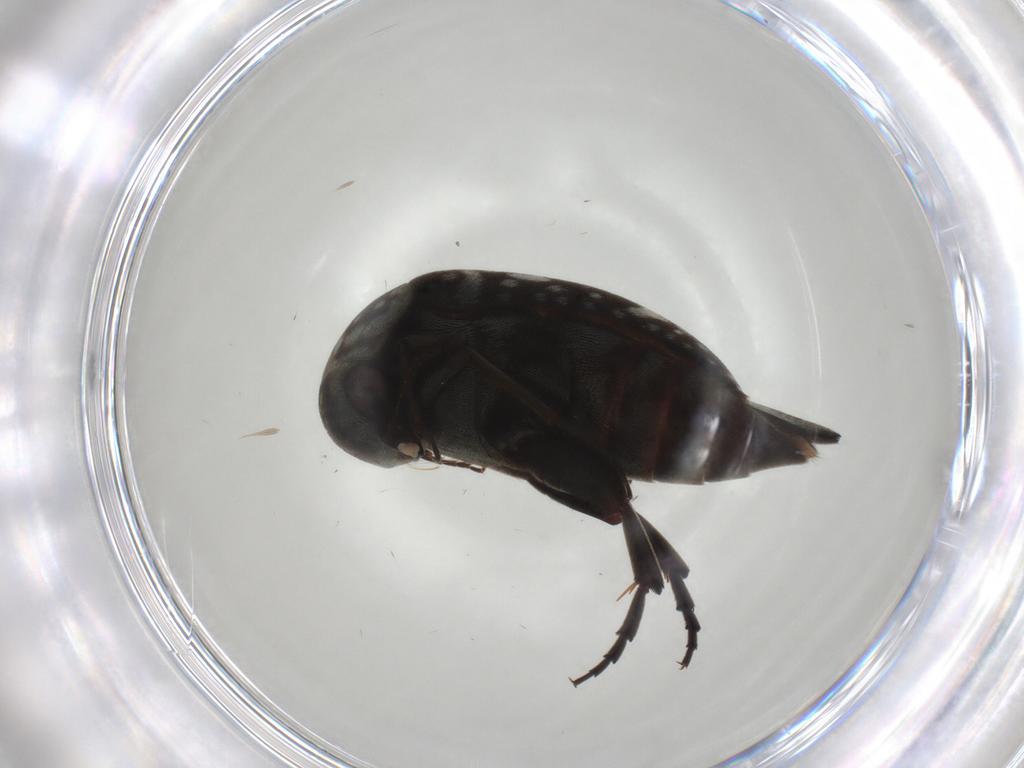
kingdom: Animalia
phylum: Arthropoda
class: Insecta
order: Coleoptera
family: Mordellidae
